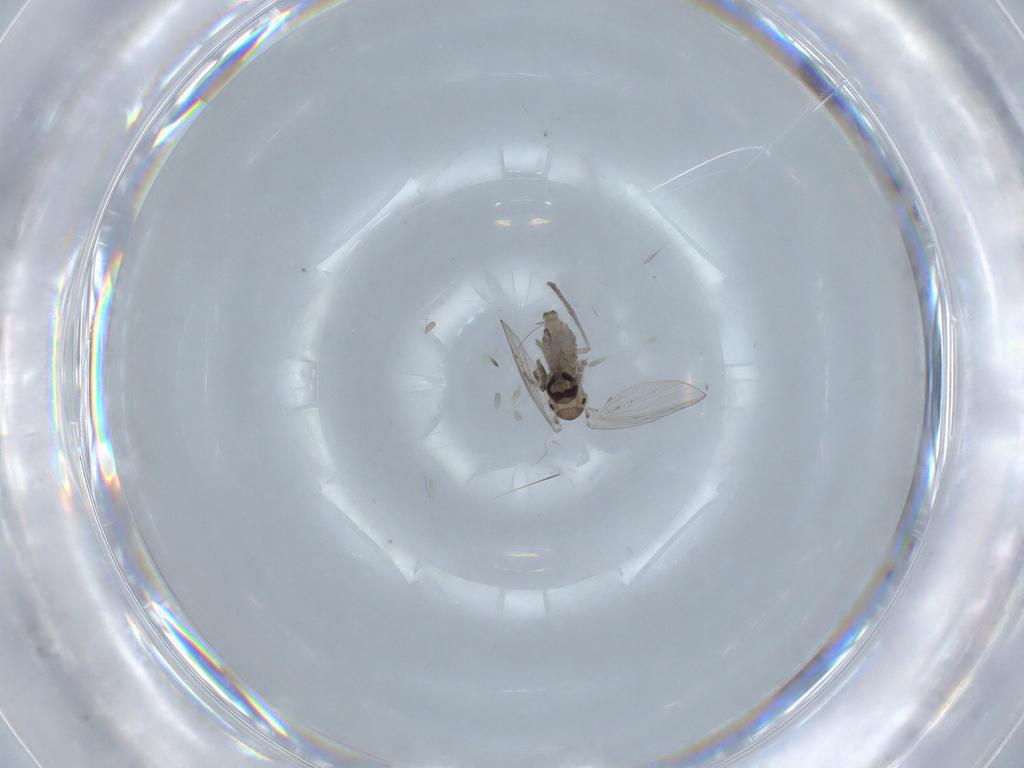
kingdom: Animalia
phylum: Arthropoda
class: Insecta
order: Diptera
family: Psychodidae
